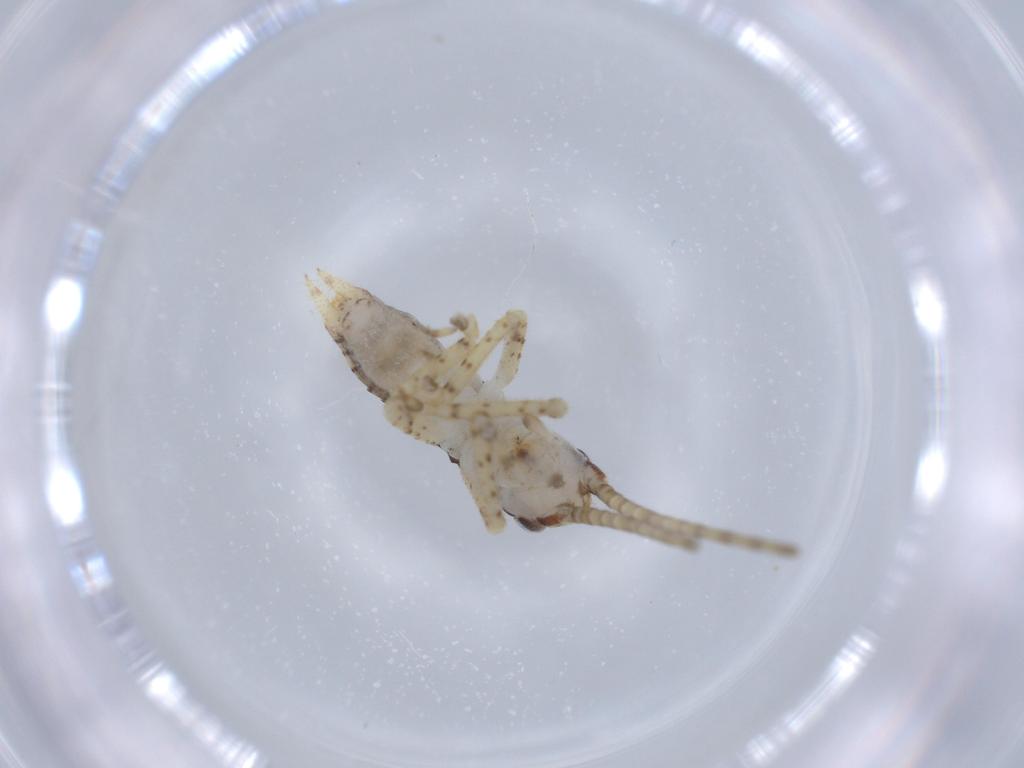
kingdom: Animalia
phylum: Arthropoda
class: Insecta
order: Orthoptera
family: Gryllidae
